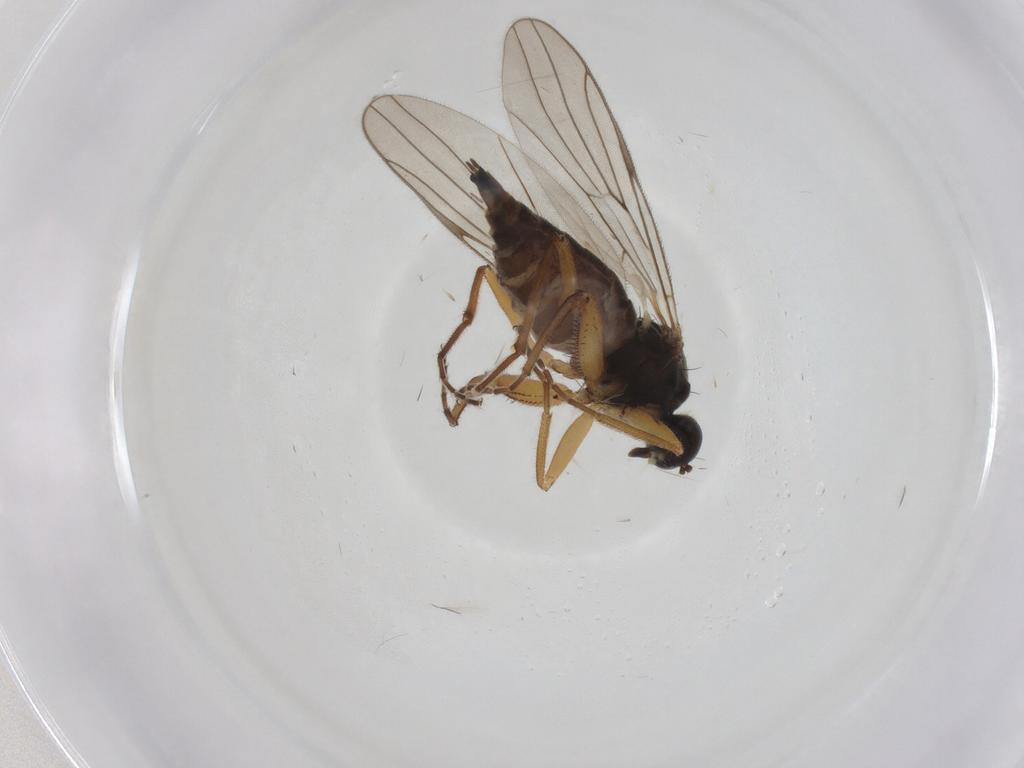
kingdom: Animalia
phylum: Arthropoda
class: Insecta
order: Diptera
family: Hybotidae
